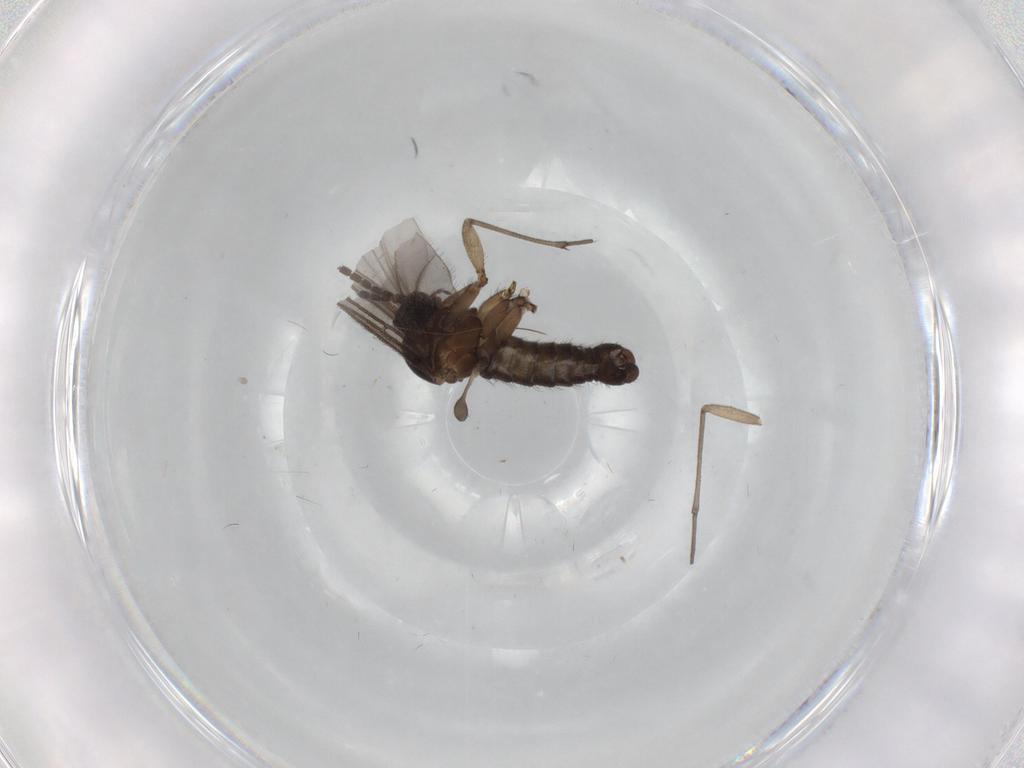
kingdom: Animalia
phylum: Arthropoda
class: Insecta
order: Diptera
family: Sciaridae
